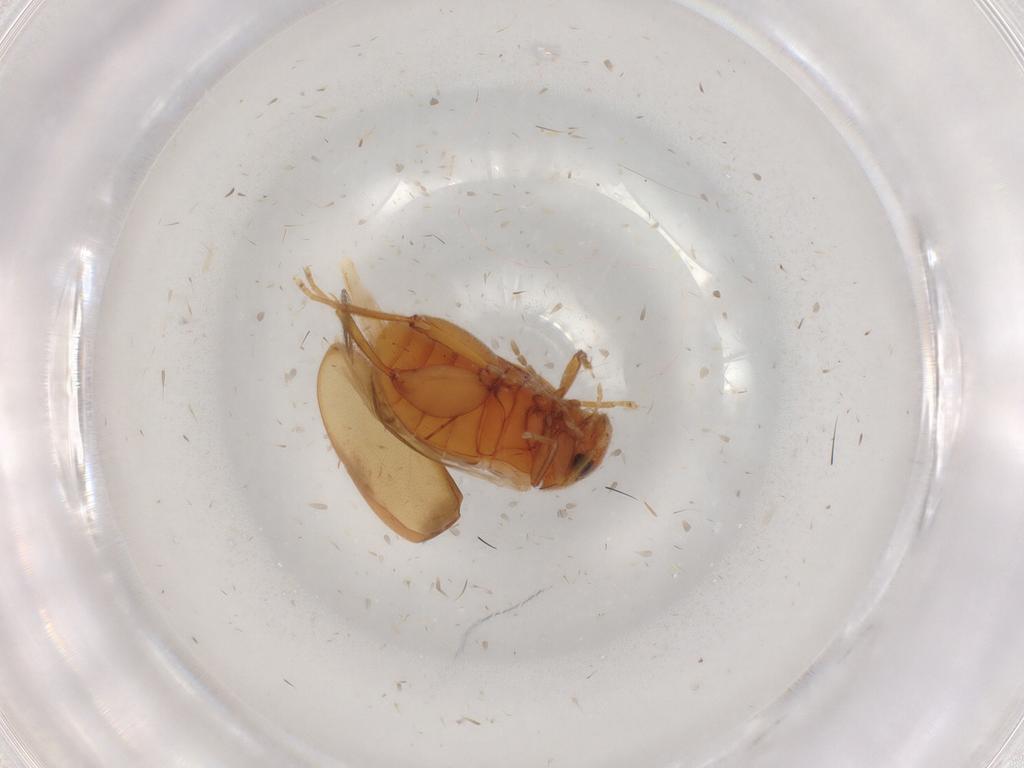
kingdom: Animalia
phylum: Arthropoda
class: Insecta
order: Coleoptera
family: Scirtidae
